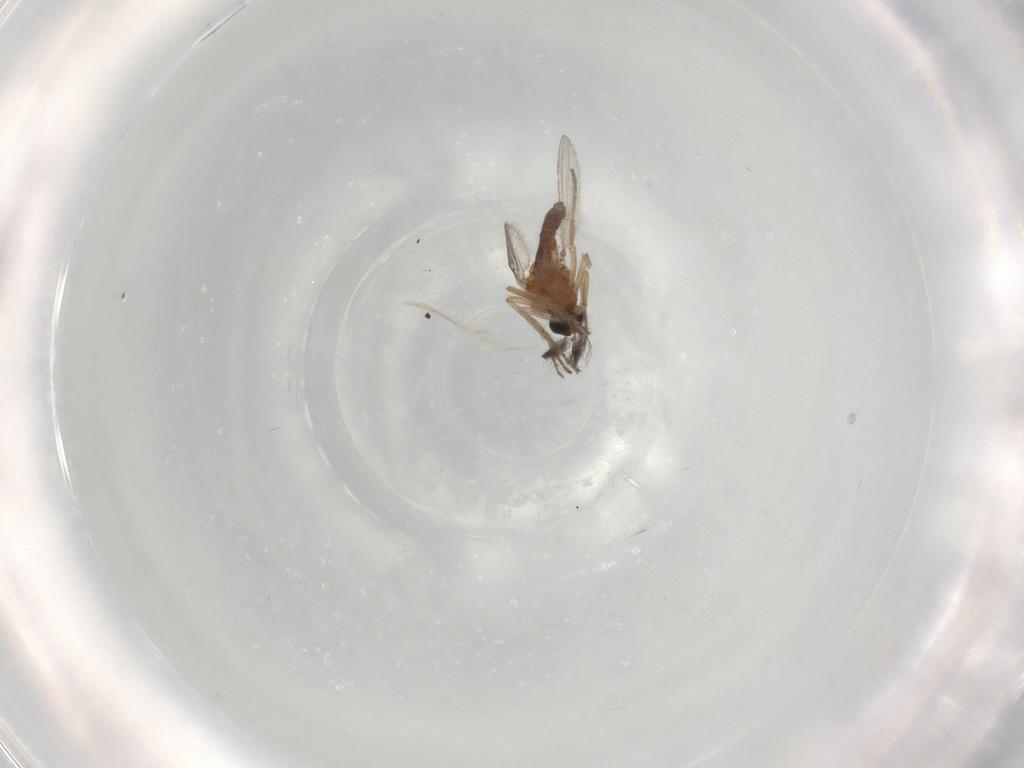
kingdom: Animalia
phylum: Arthropoda
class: Insecta
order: Diptera
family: Ceratopogonidae
